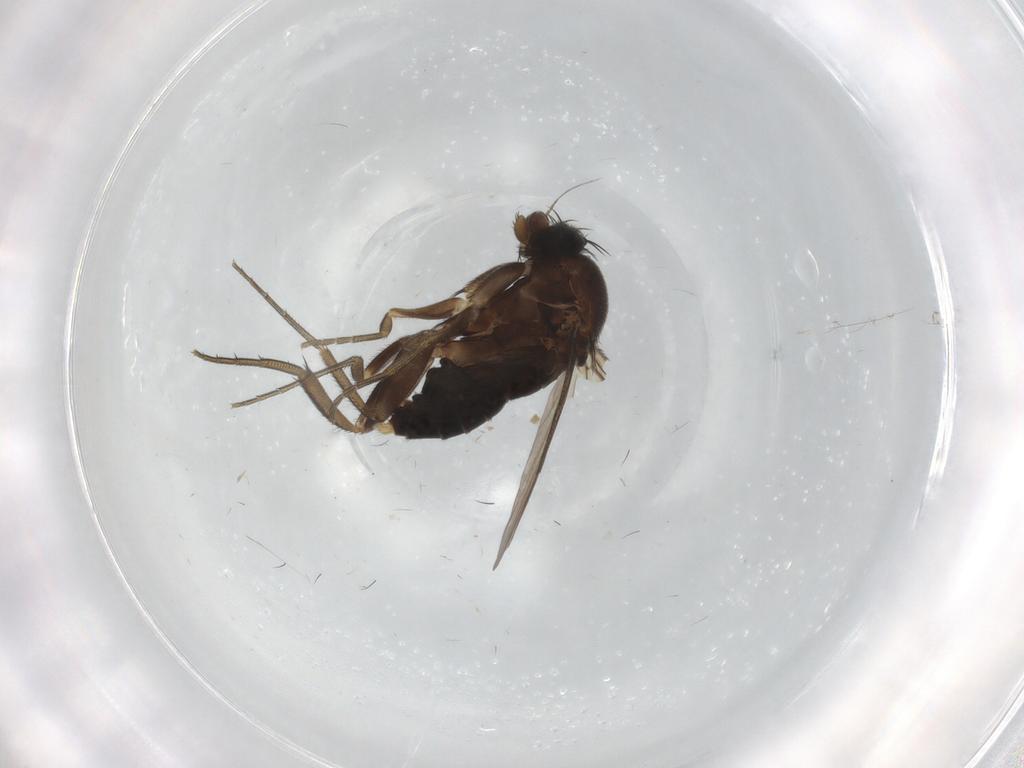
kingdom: Animalia
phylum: Arthropoda
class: Insecta
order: Diptera
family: Phoridae
